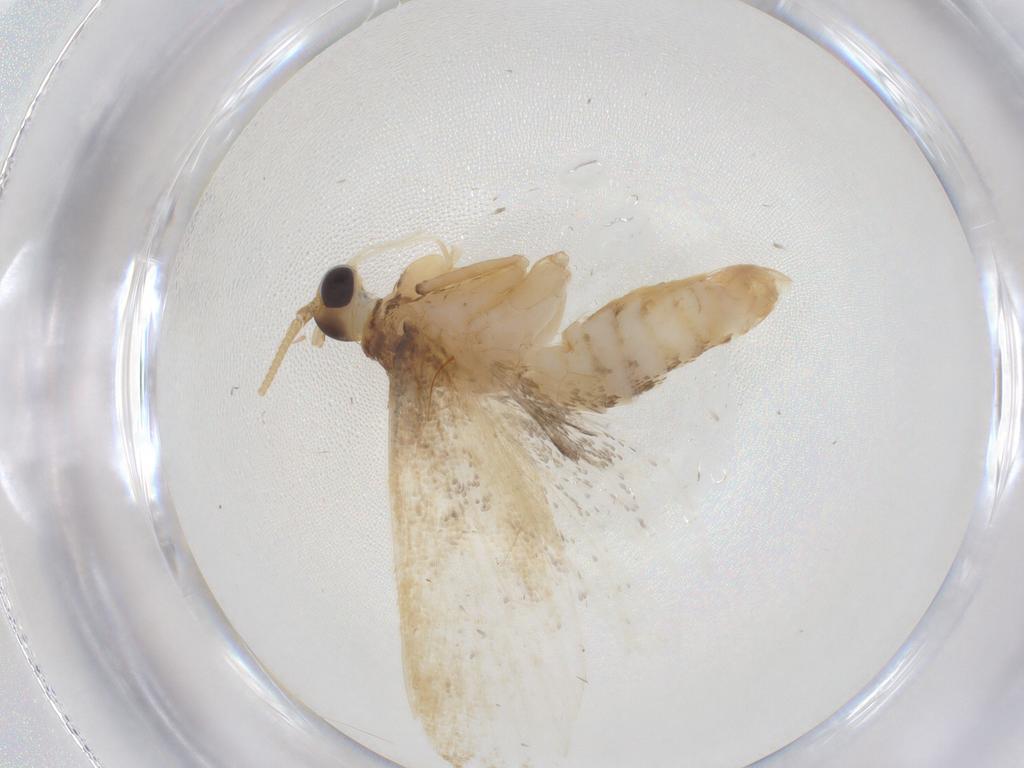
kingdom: Animalia
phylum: Arthropoda
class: Insecta
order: Lepidoptera
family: Lecithoceridae
